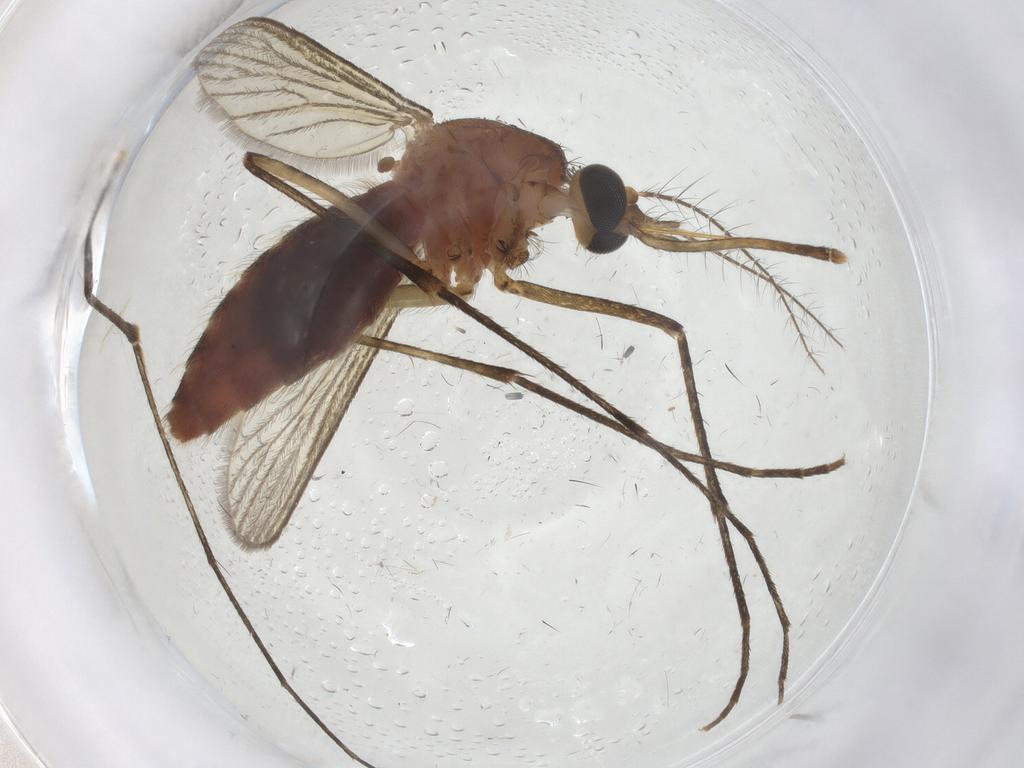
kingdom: Animalia
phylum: Arthropoda
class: Insecta
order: Diptera
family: Cecidomyiidae
